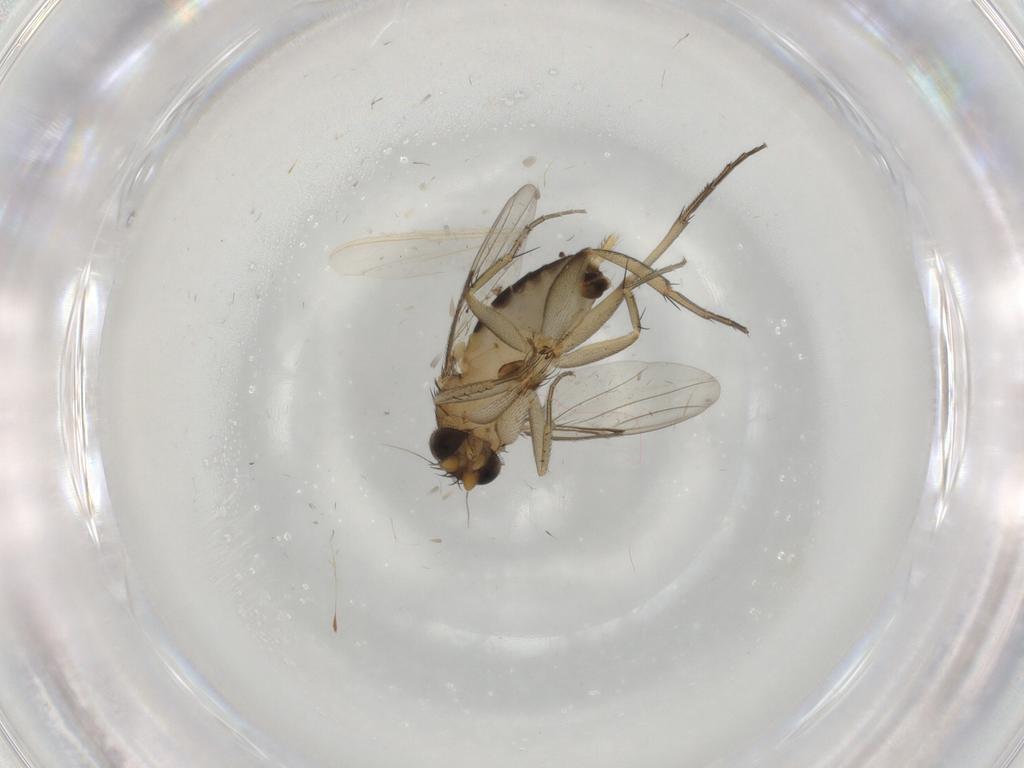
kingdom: Animalia
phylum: Arthropoda
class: Insecta
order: Diptera
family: Phoridae
